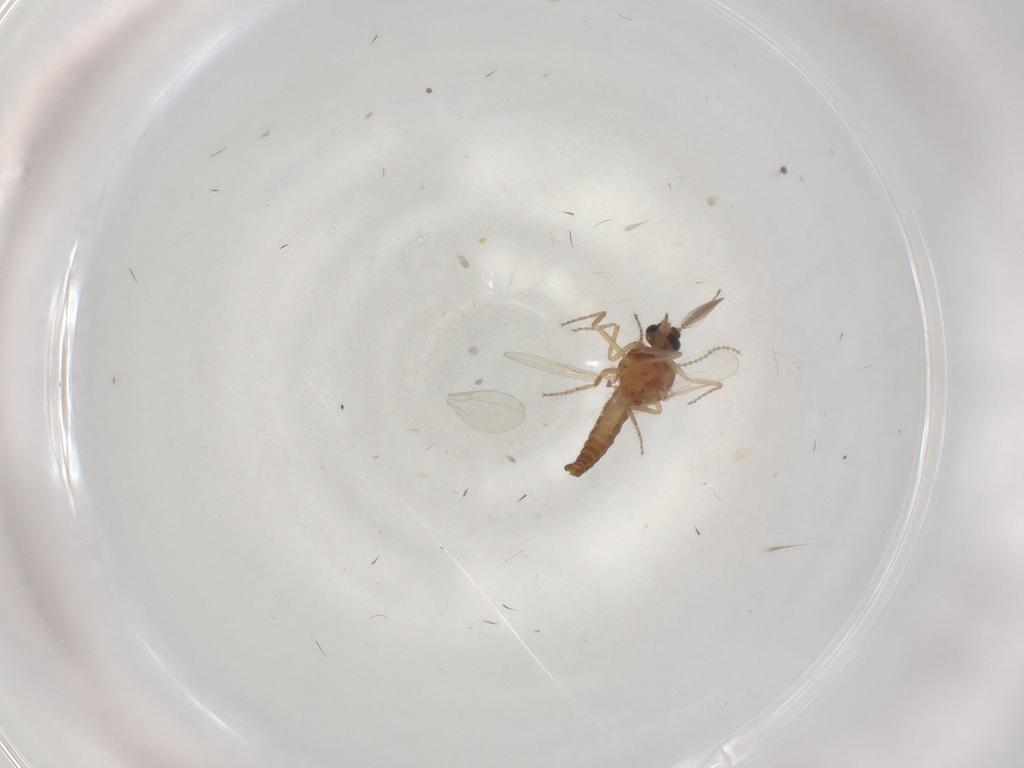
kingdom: Animalia
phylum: Arthropoda
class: Insecta
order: Diptera
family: Ceratopogonidae
